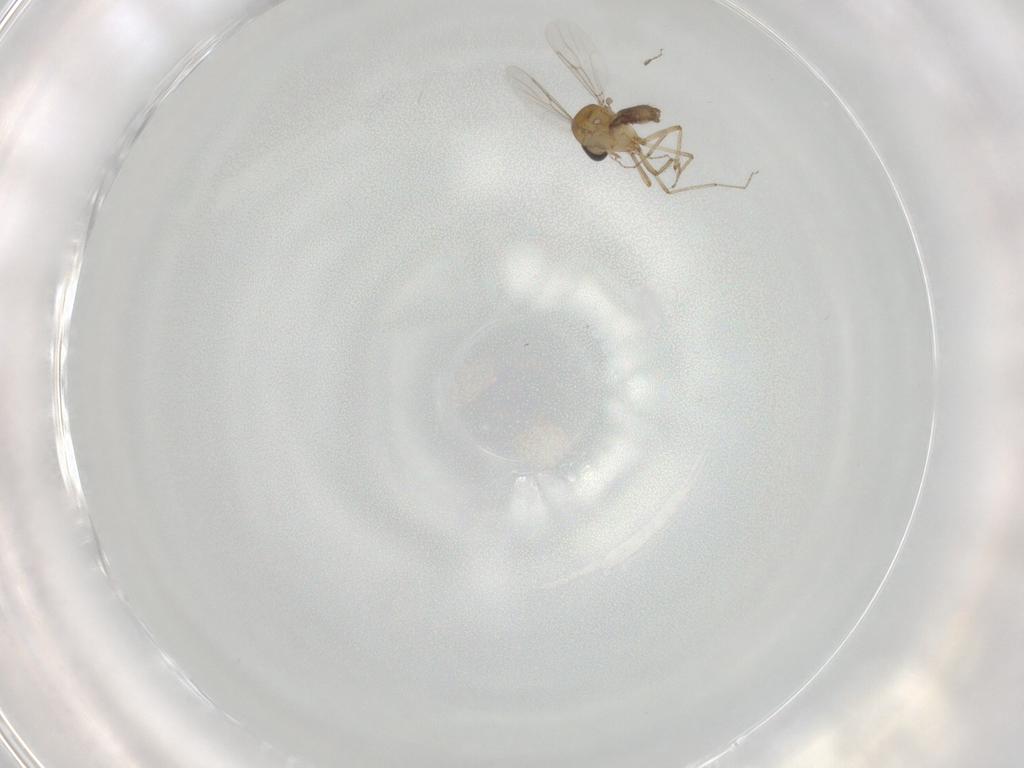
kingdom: Animalia
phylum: Arthropoda
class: Insecta
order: Diptera
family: Ceratopogonidae
